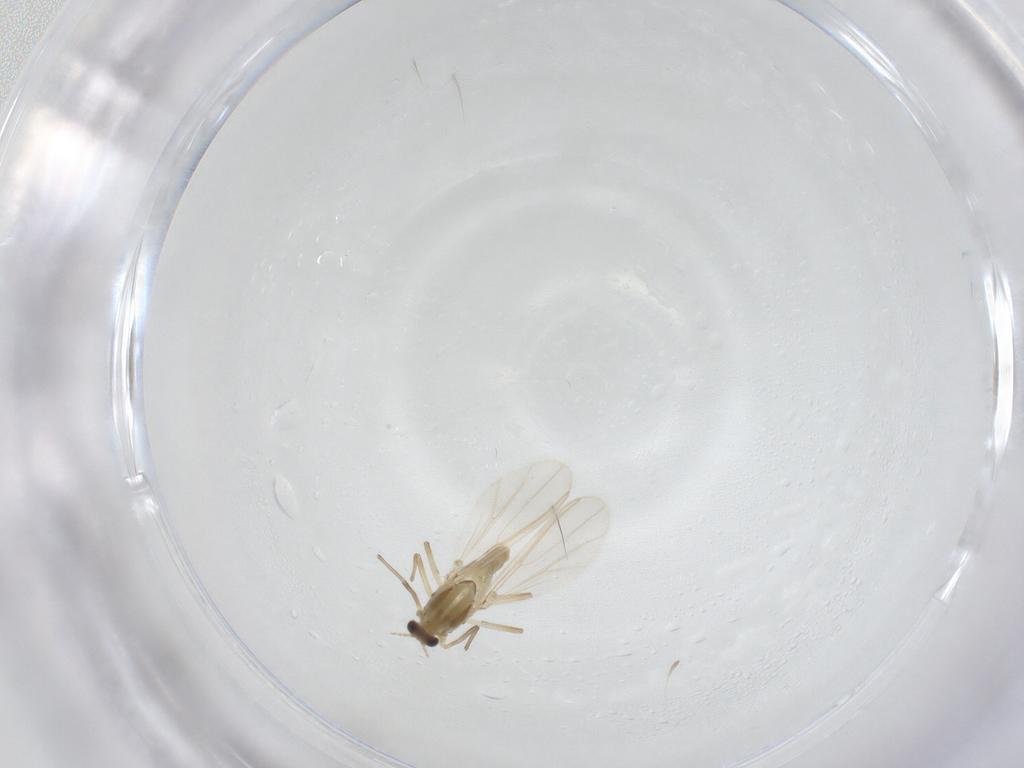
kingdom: Animalia
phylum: Arthropoda
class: Insecta
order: Diptera
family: Chironomidae
